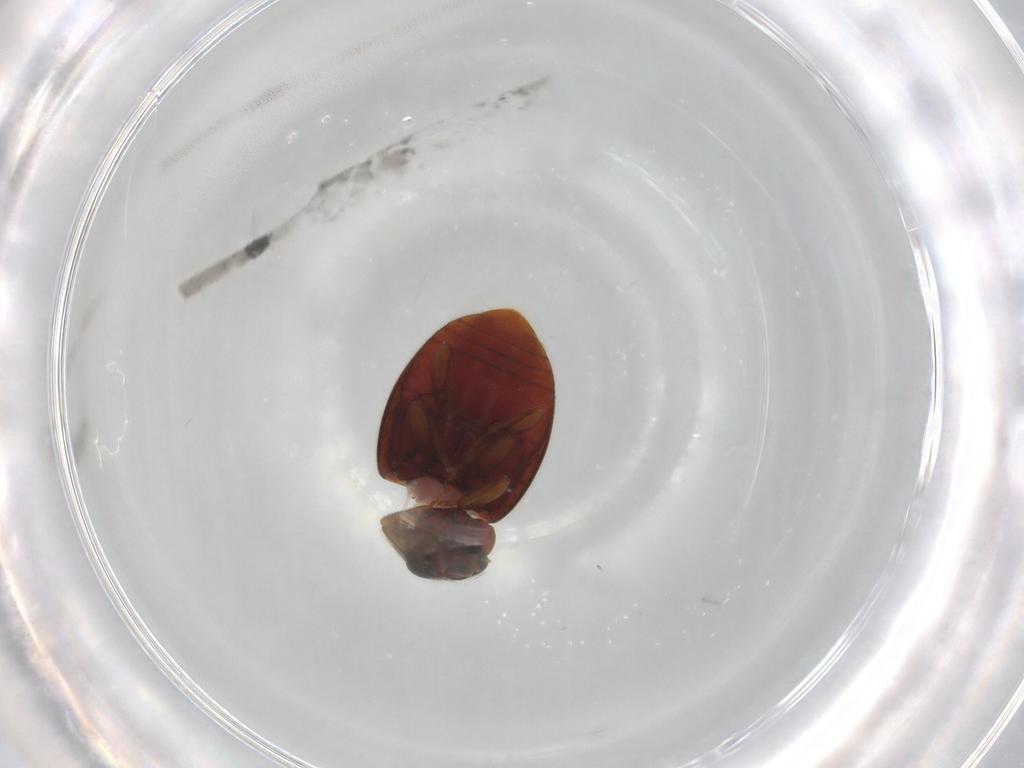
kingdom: Animalia
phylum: Arthropoda
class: Insecta
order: Coleoptera
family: Coccinellidae
